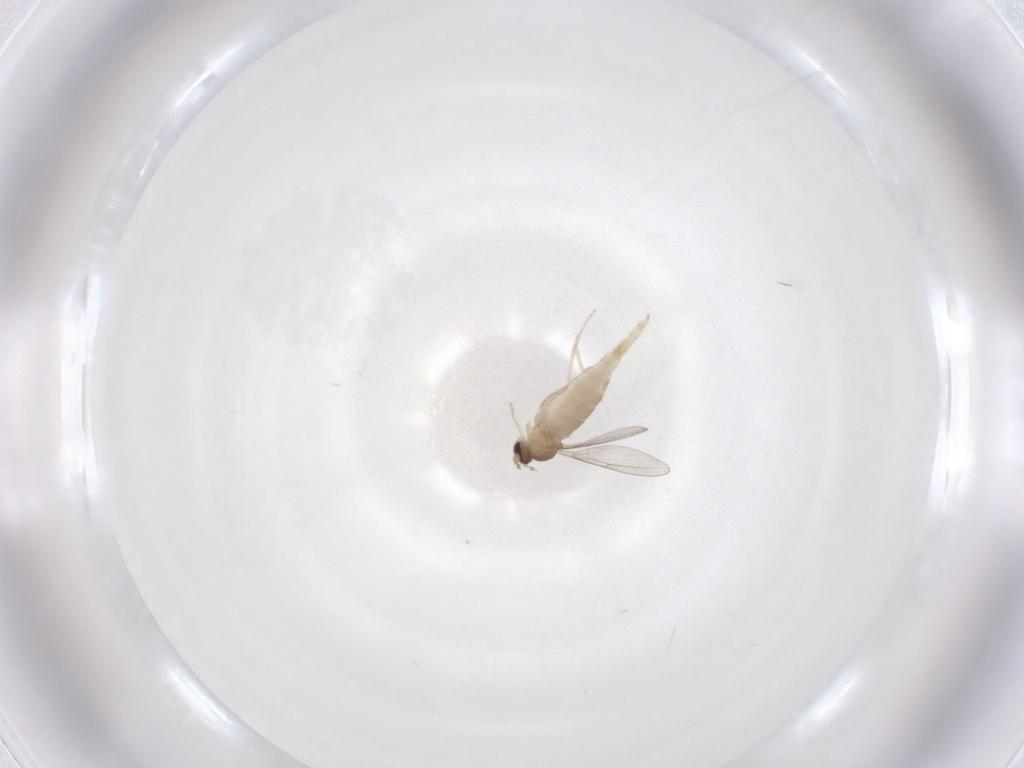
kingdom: Animalia
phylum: Arthropoda
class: Insecta
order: Diptera
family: Cecidomyiidae
